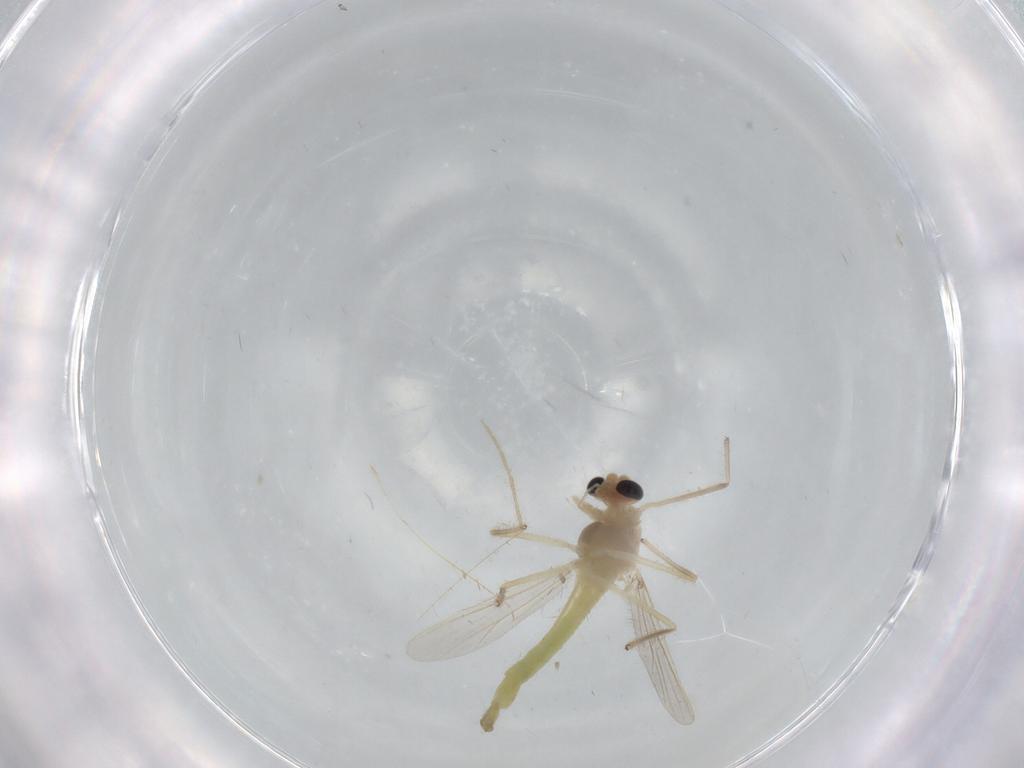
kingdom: Animalia
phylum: Arthropoda
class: Insecta
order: Diptera
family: Chironomidae
